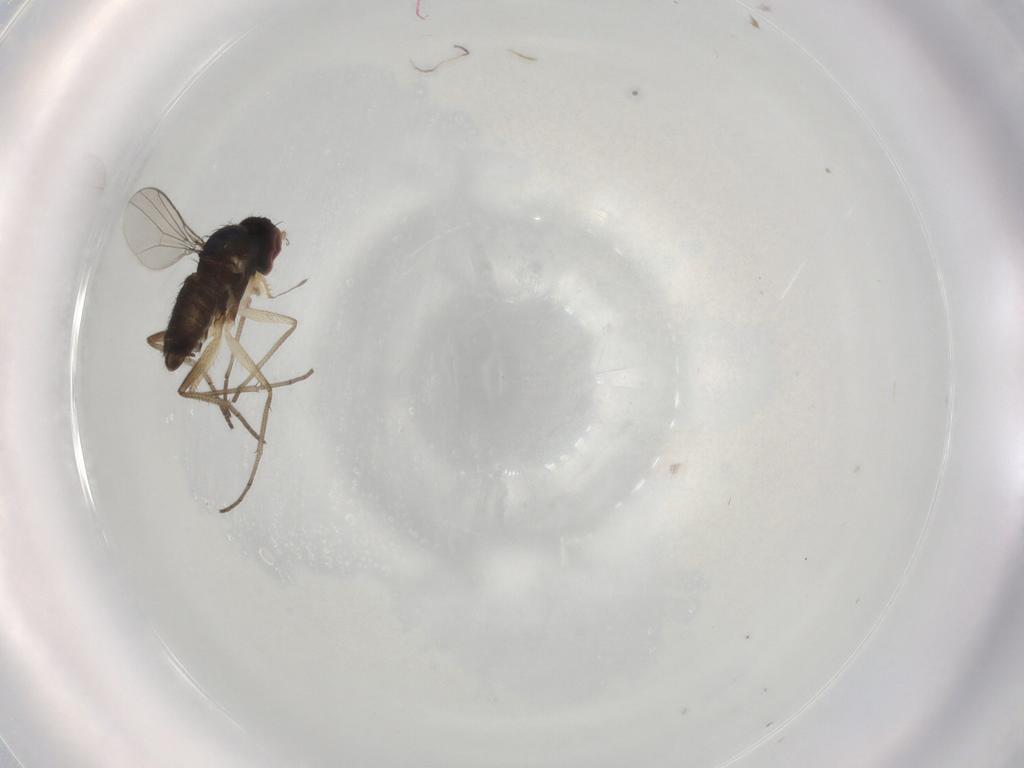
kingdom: Animalia
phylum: Arthropoda
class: Insecta
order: Diptera
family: Dolichopodidae
